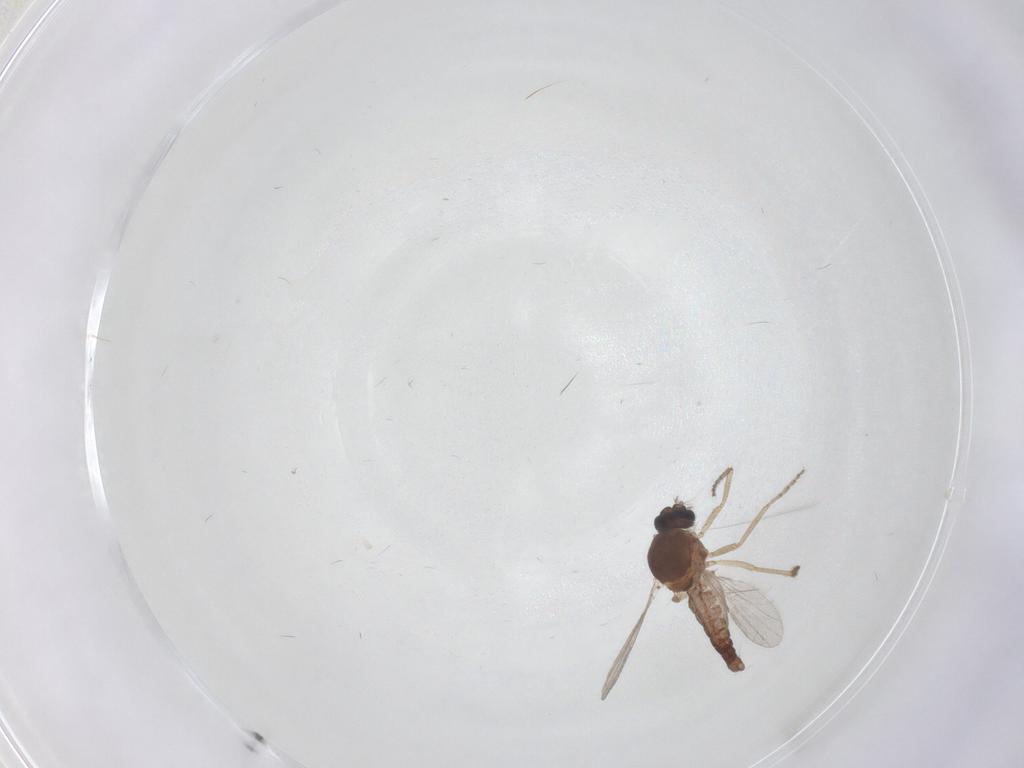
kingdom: Animalia
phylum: Arthropoda
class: Insecta
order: Diptera
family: Ceratopogonidae
